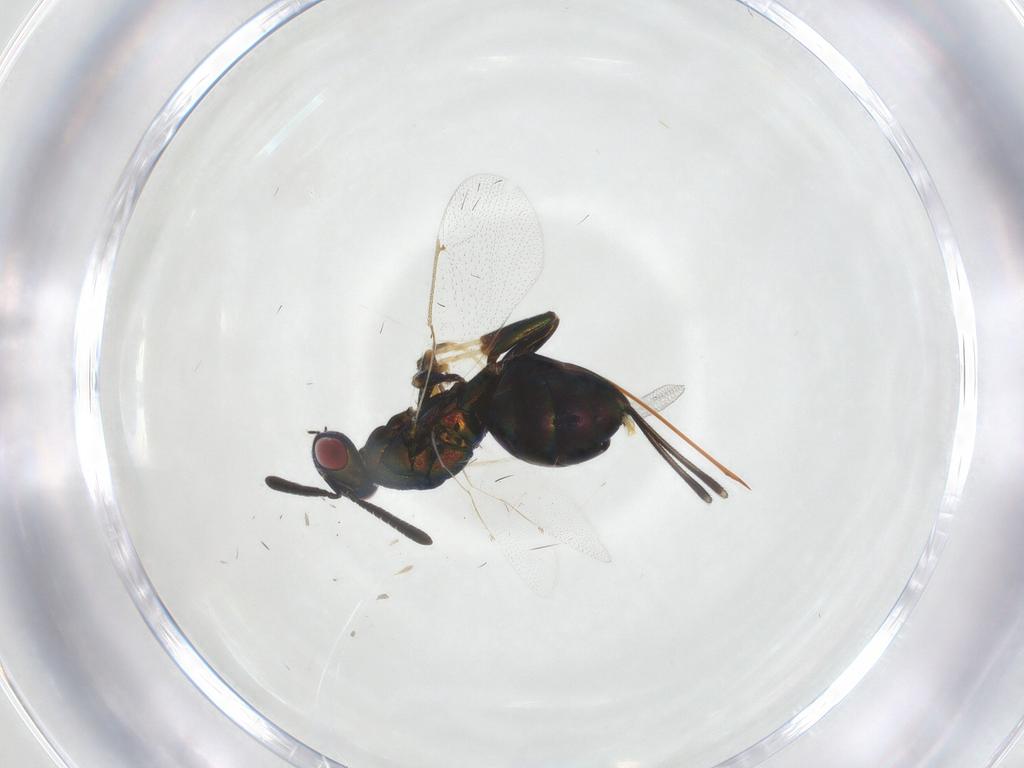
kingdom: Animalia
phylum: Arthropoda
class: Insecta
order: Hymenoptera
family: Torymidae
